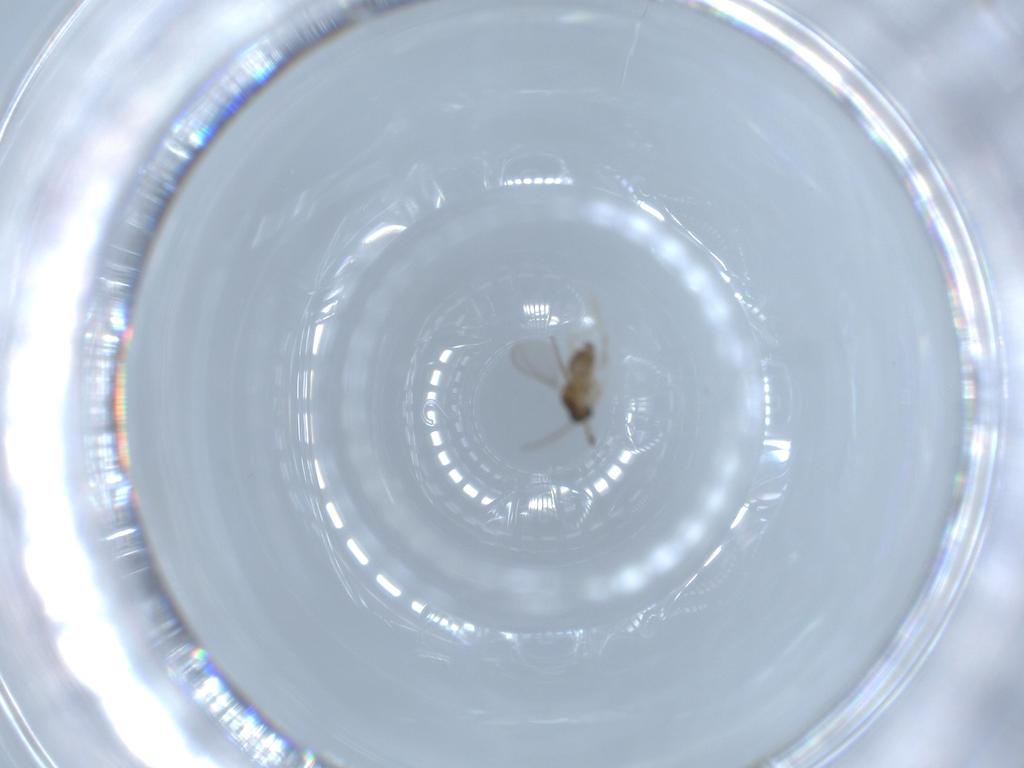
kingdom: Animalia
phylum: Arthropoda
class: Insecta
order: Diptera
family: Cecidomyiidae
